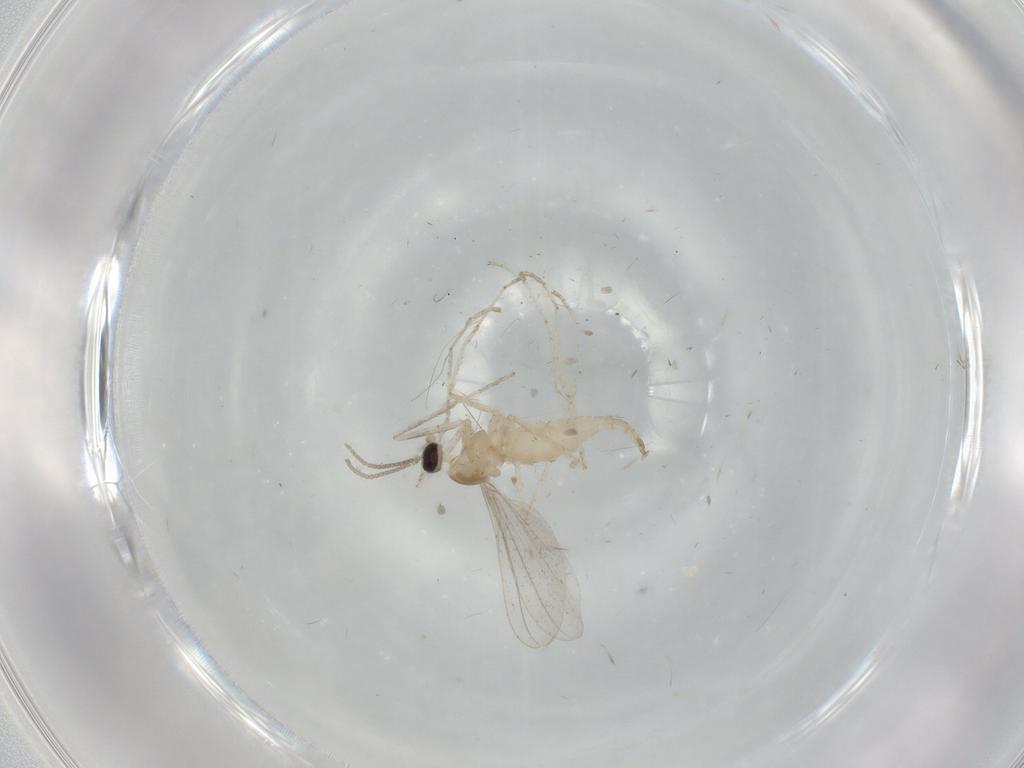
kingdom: Animalia
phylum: Arthropoda
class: Insecta
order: Diptera
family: Cecidomyiidae
